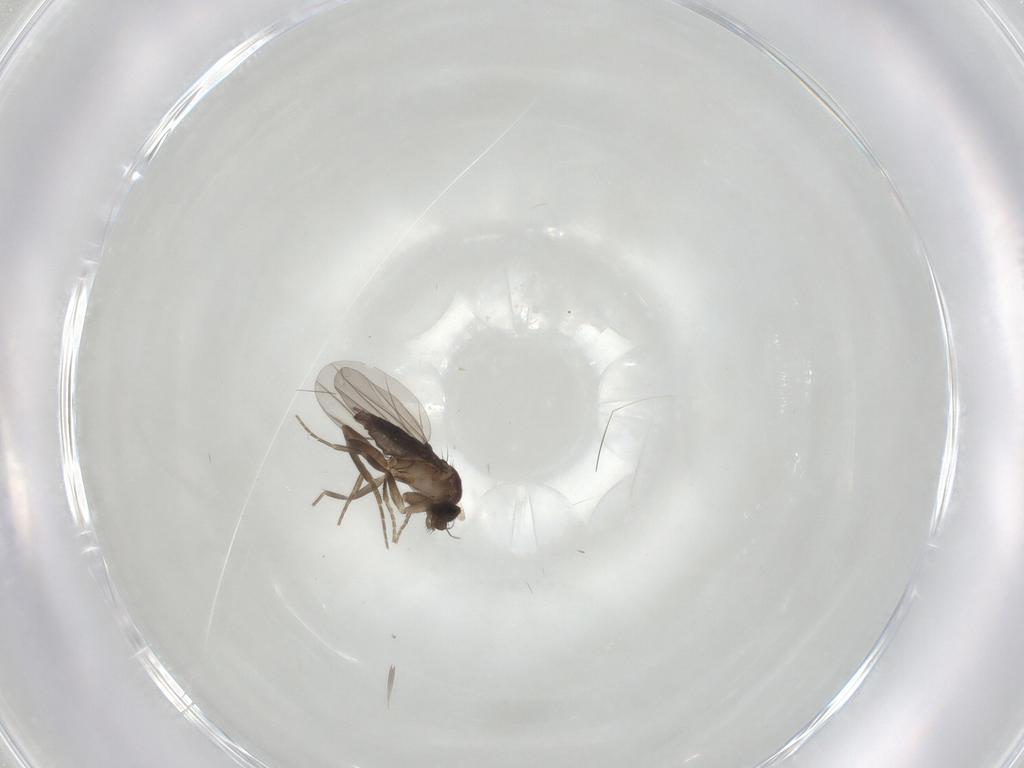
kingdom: Animalia
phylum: Arthropoda
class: Insecta
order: Diptera
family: Phoridae
